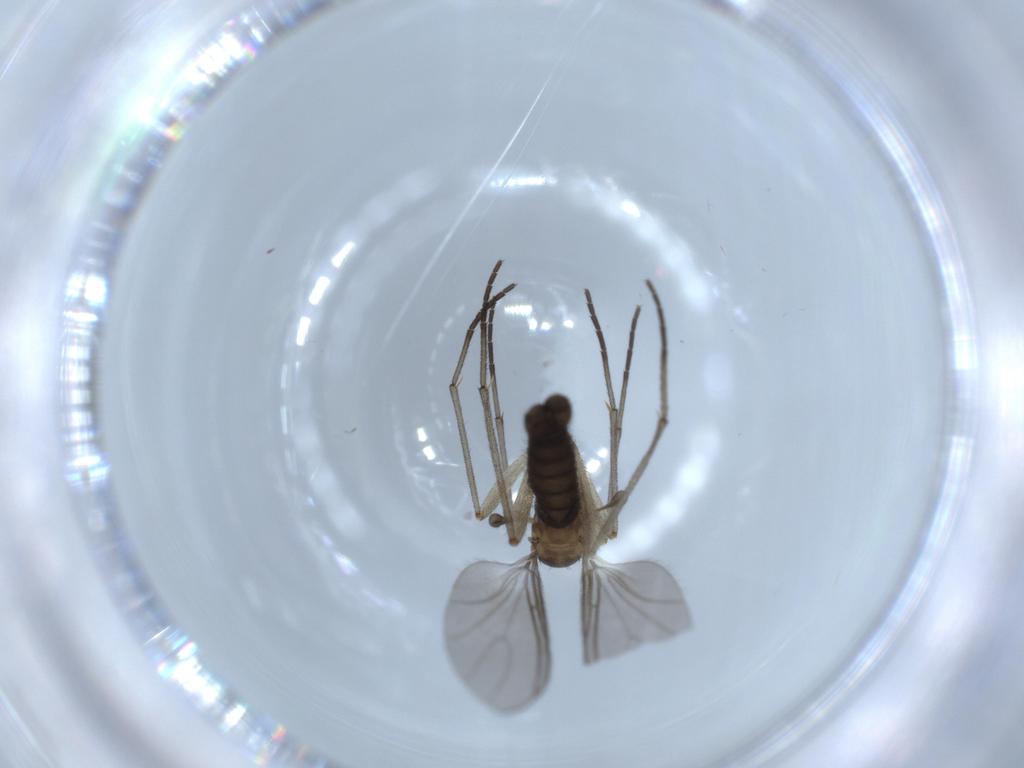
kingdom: Animalia
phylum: Arthropoda
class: Insecta
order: Diptera
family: Sciaridae
